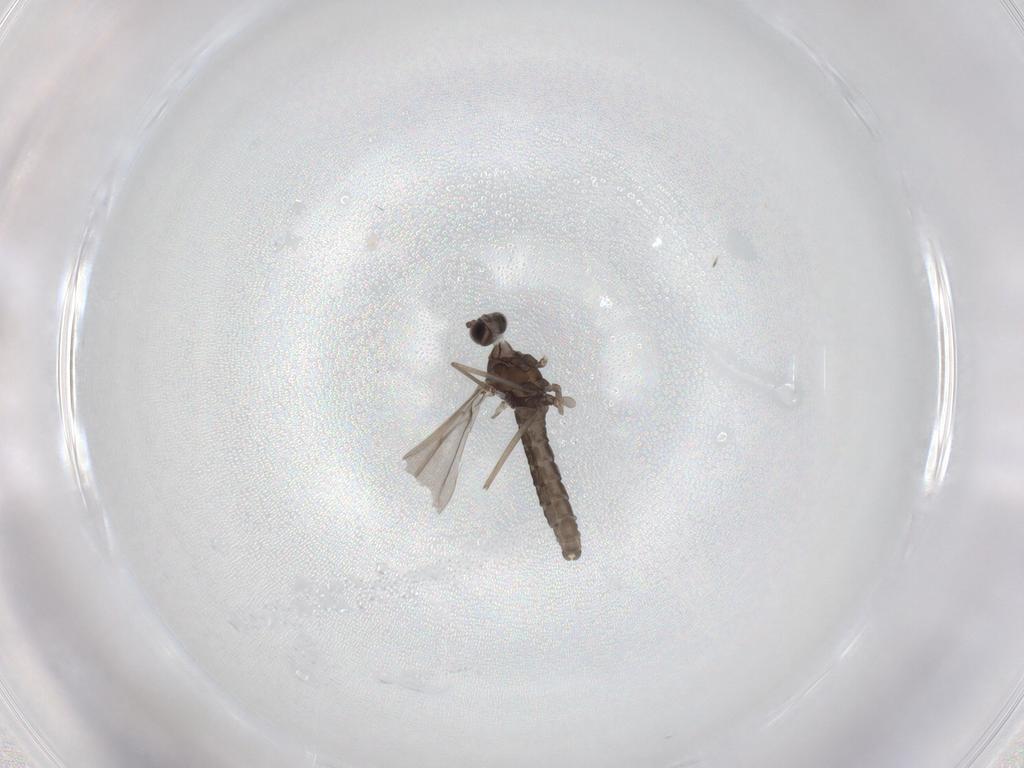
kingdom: Animalia
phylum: Arthropoda
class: Insecta
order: Diptera
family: Cecidomyiidae
